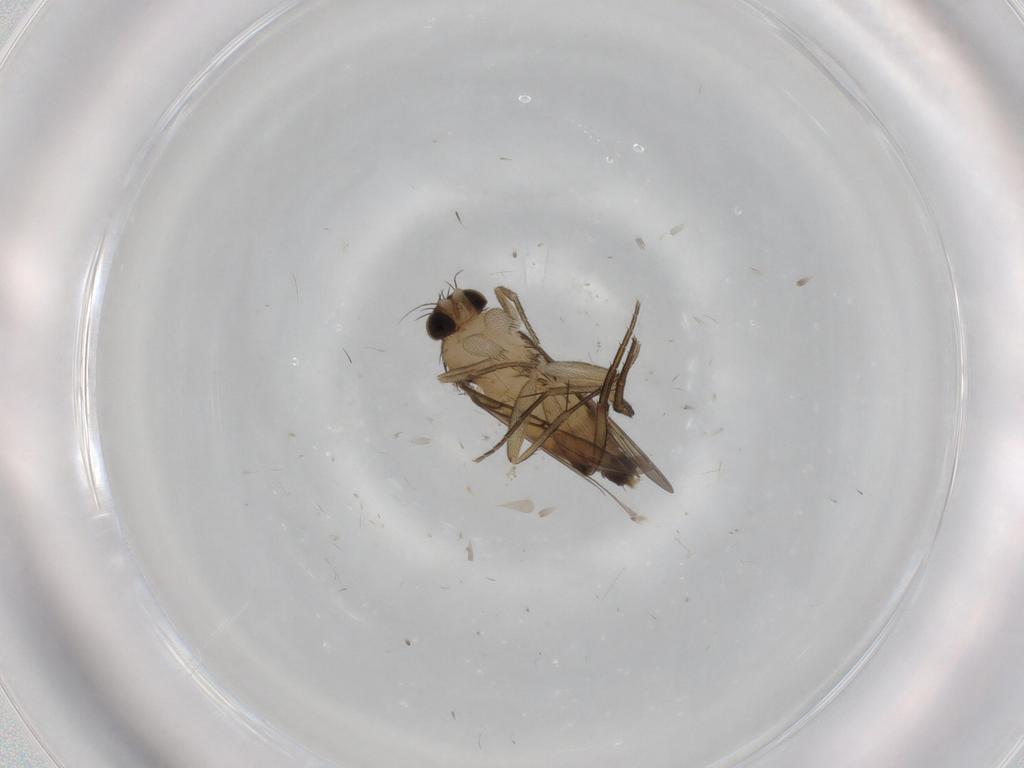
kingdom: Animalia
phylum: Arthropoda
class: Insecta
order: Diptera
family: Phoridae
